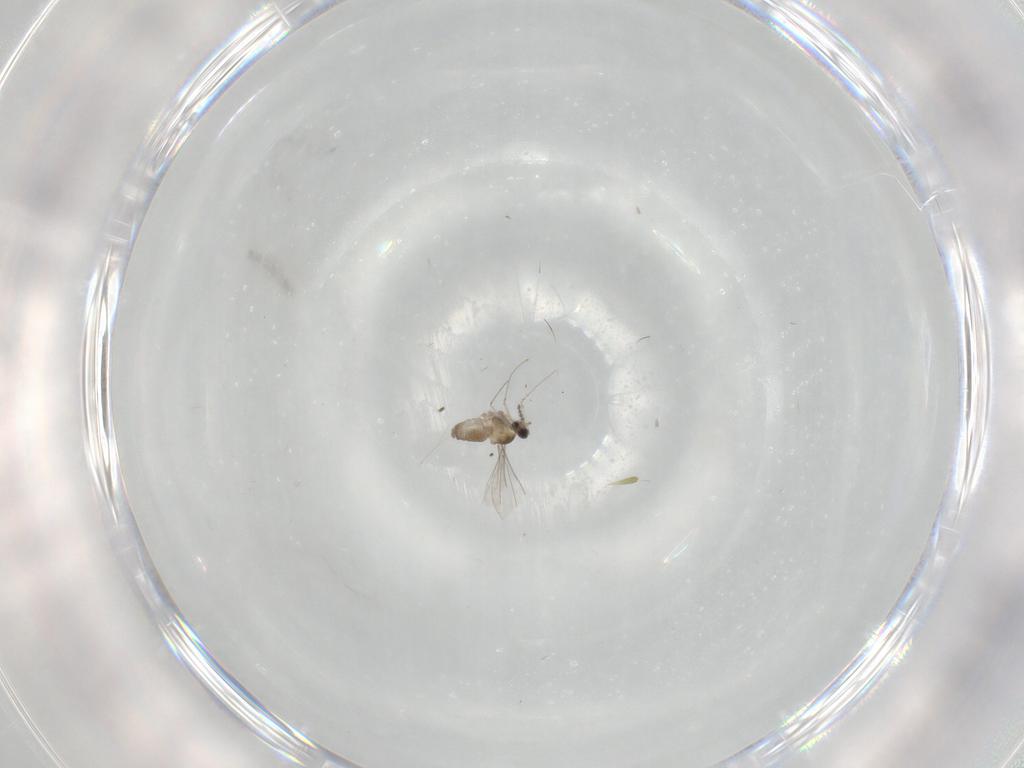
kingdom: Animalia
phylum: Arthropoda
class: Insecta
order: Diptera
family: Cecidomyiidae
